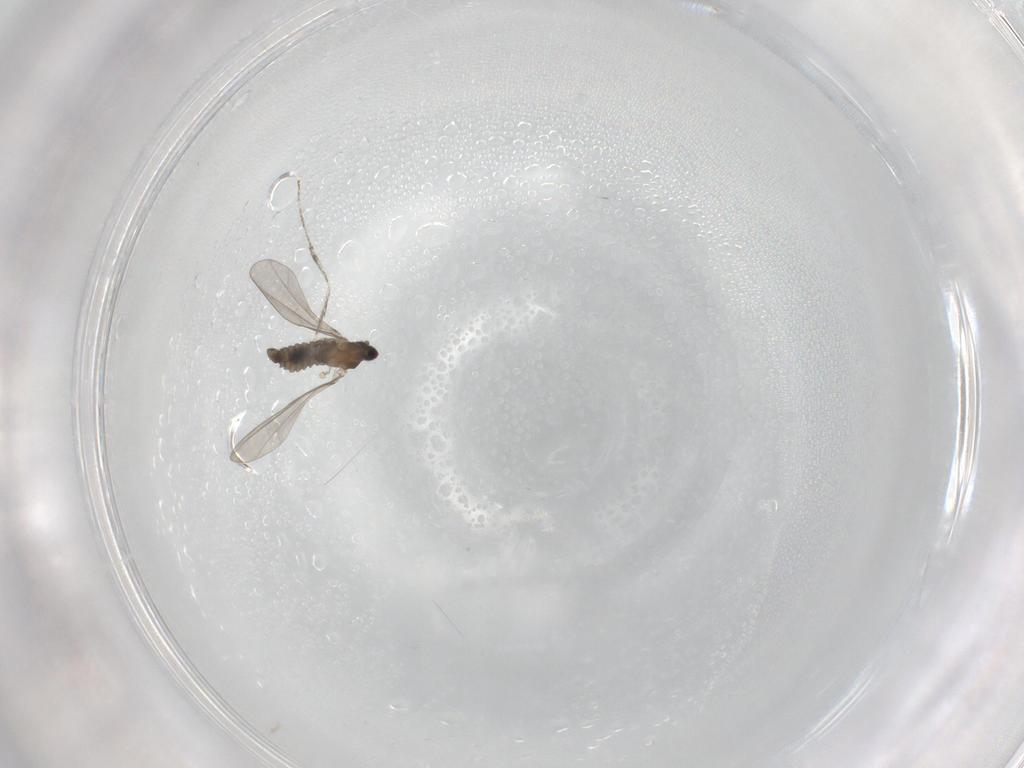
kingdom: Animalia
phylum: Arthropoda
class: Insecta
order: Diptera
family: Cecidomyiidae
